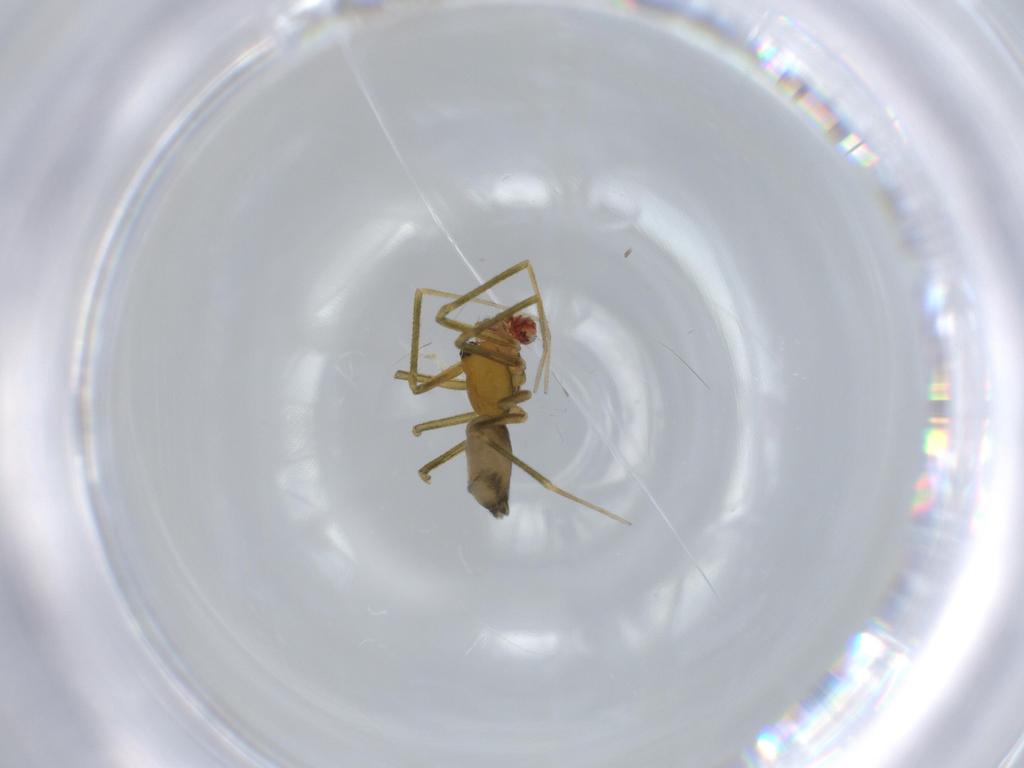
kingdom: Animalia
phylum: Arthropoda
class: Arachnida
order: Araneae
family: Linyphiidae
